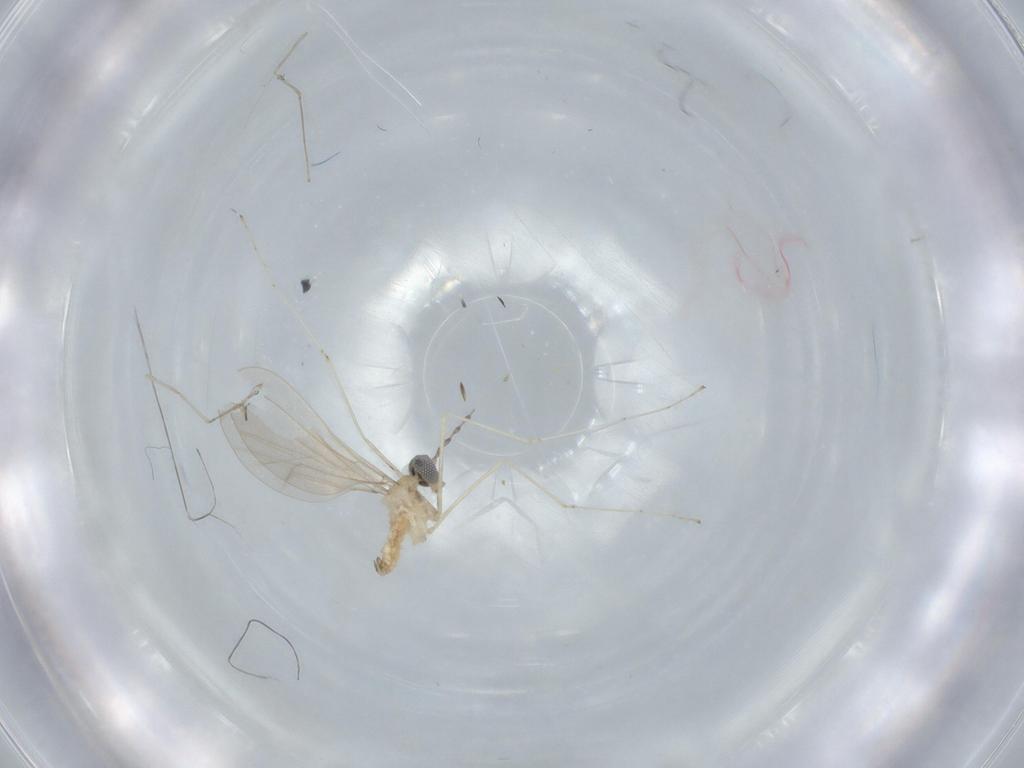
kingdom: Animalia
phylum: Arthropoda
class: Insecta
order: Diptera
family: Cecidomyiidae
